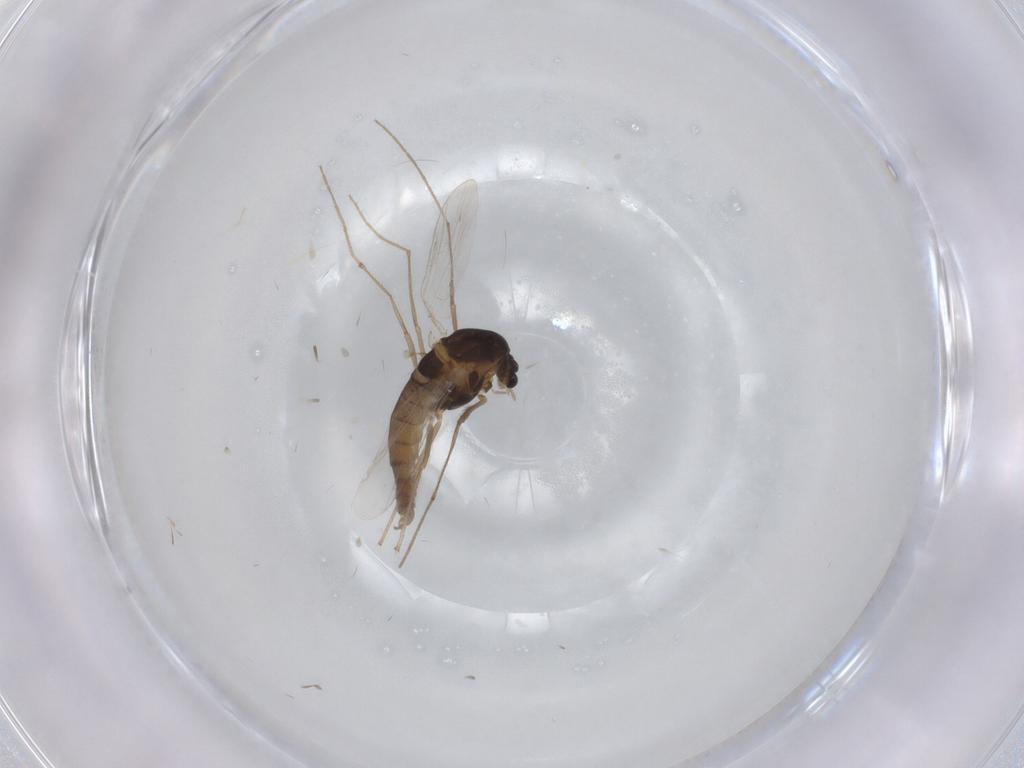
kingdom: Animalia
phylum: Arthropoda
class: Insecta
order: Diptera
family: Chironomidae
